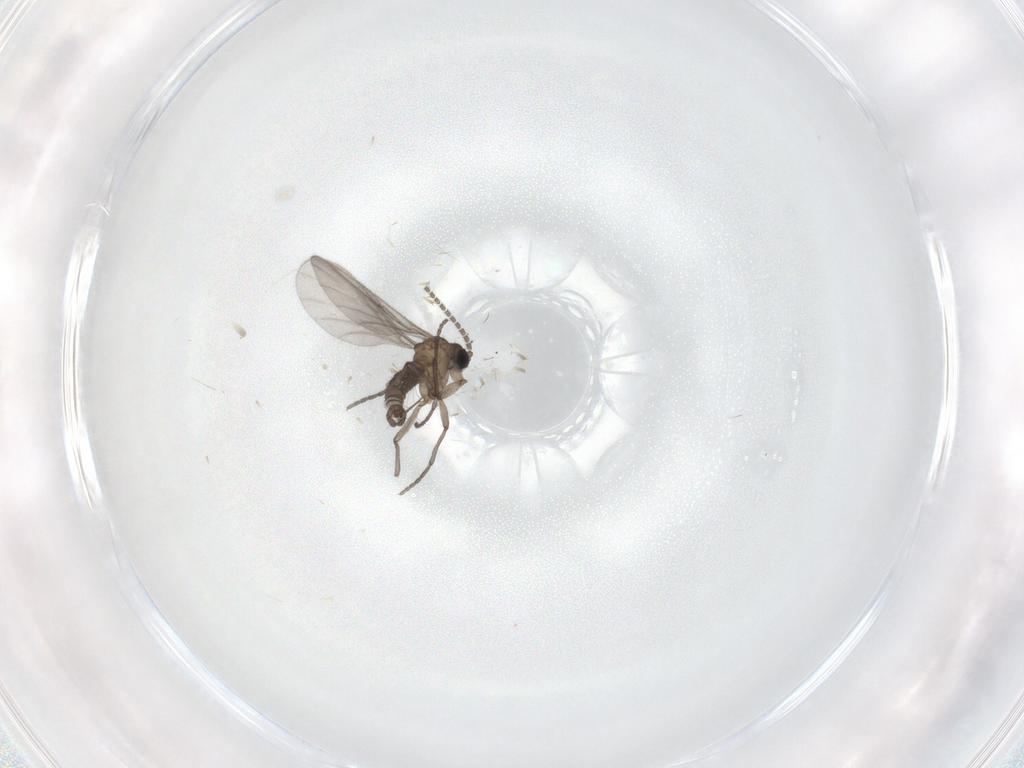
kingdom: Animalia
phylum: Arthropoda
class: Insecta
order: Diptera
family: Sciaridae
